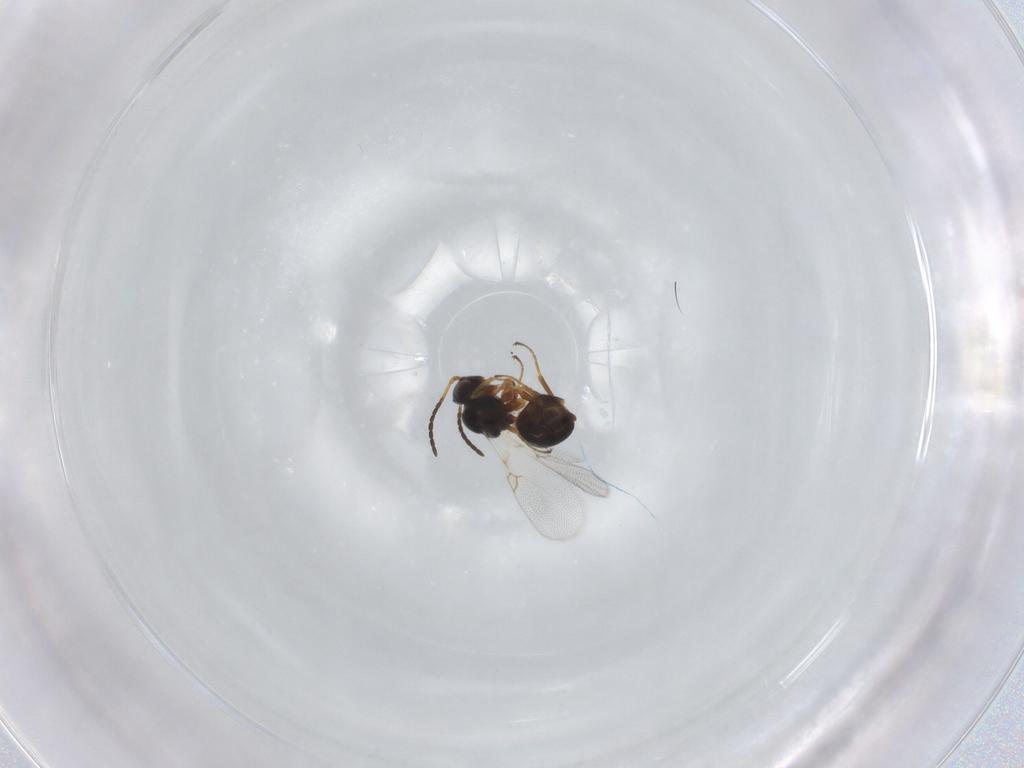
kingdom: Animalia
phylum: Arthropoda
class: Insecta
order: Hymenoptera
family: Figitidae
